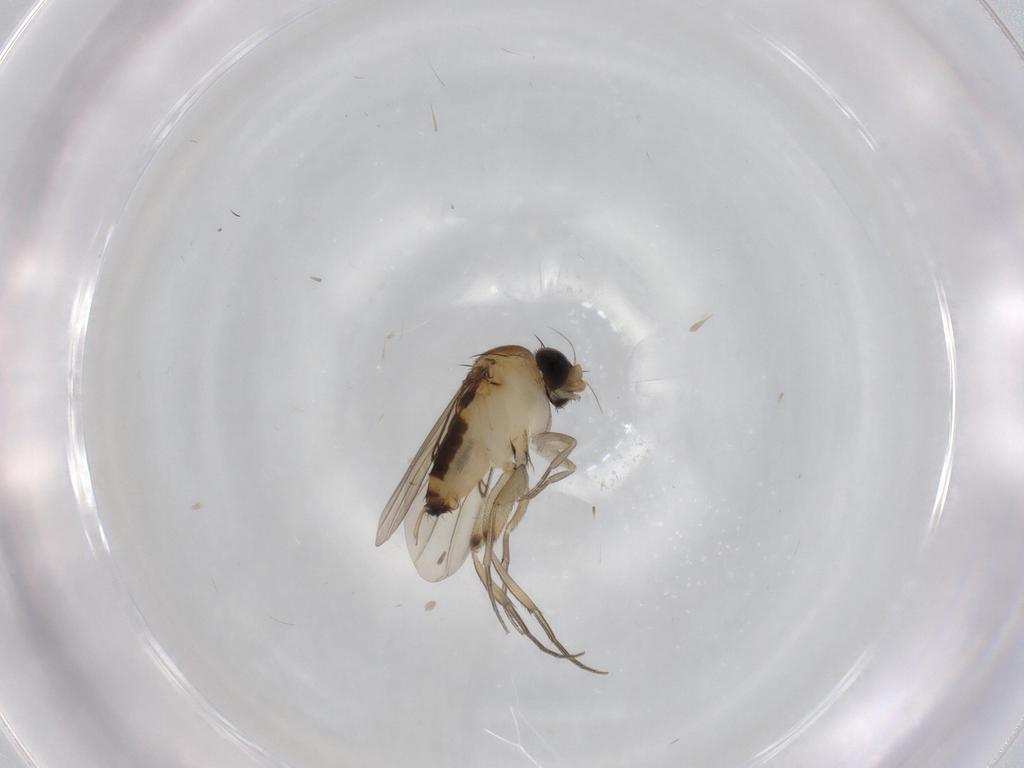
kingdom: Animalia
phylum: Arthropoda
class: Insecta
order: Diptera
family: Phoridae
